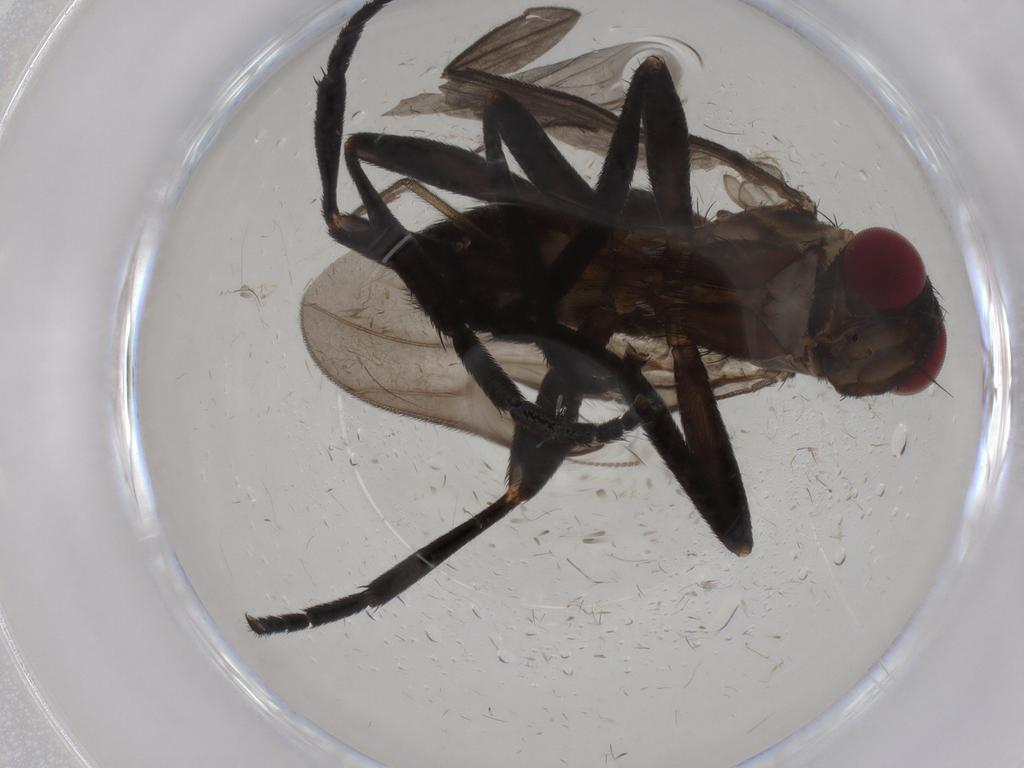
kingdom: Animalia
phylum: Arthropoda
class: Insecta
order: Diptera
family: Calliphoridae
